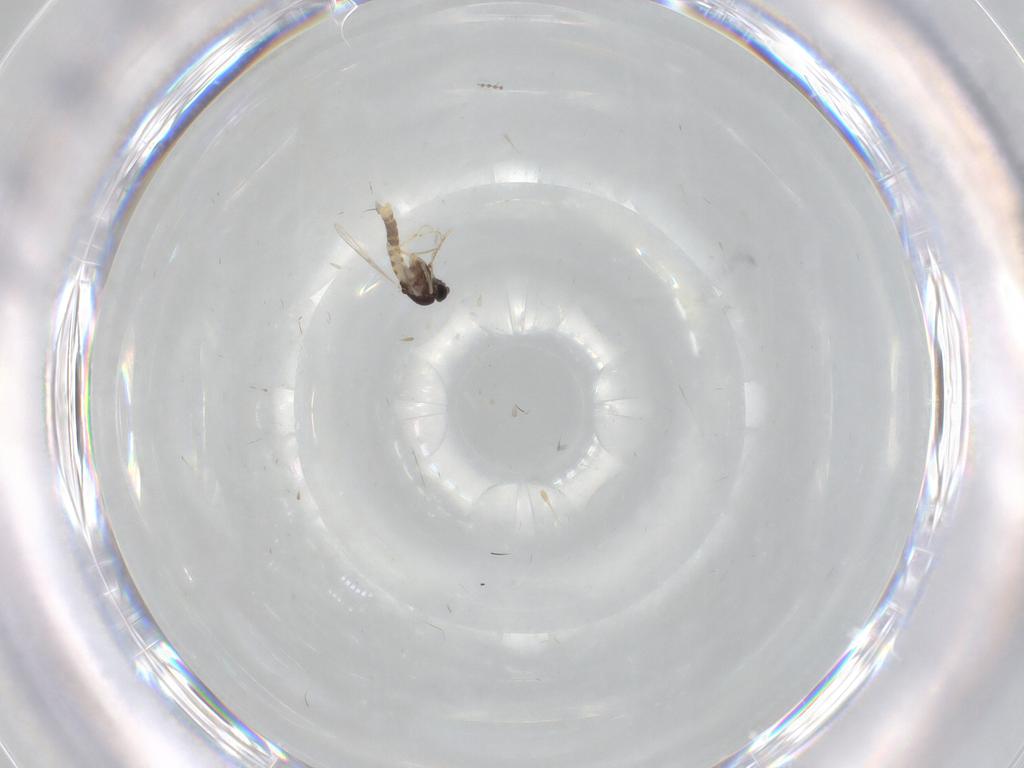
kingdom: Animalia
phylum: Arthropoda
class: Insecta
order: Diptera
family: Chironomidae
